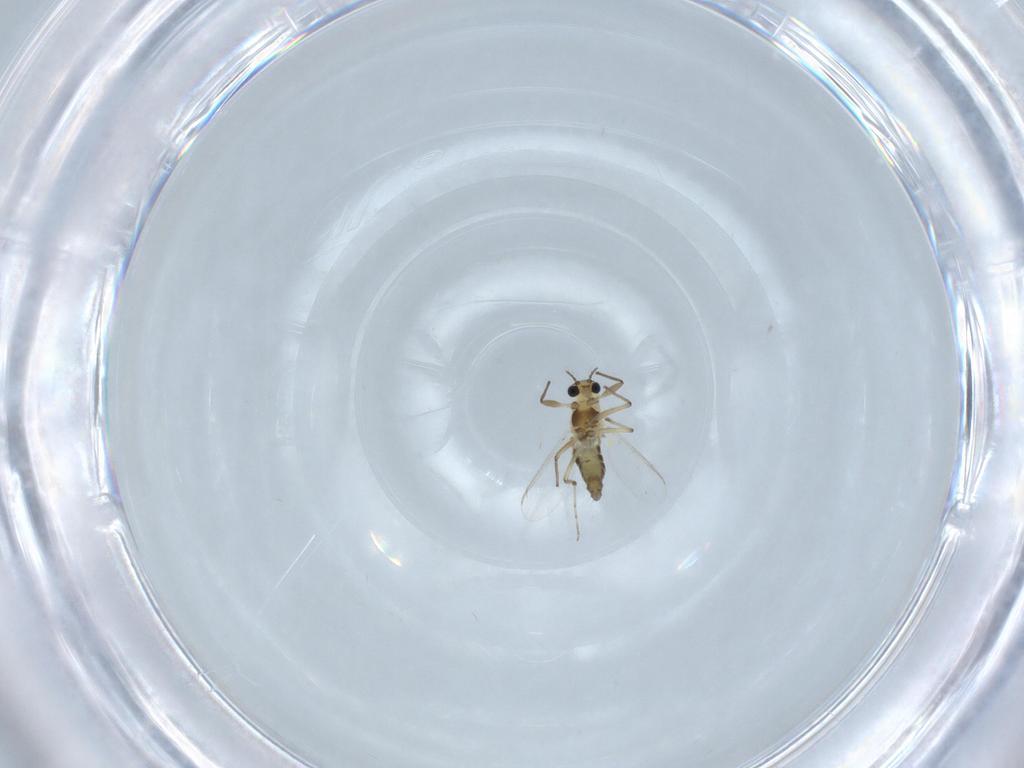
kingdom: Animalia
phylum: Arthropoda
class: Insecta
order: Diptera
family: Chironomidae
